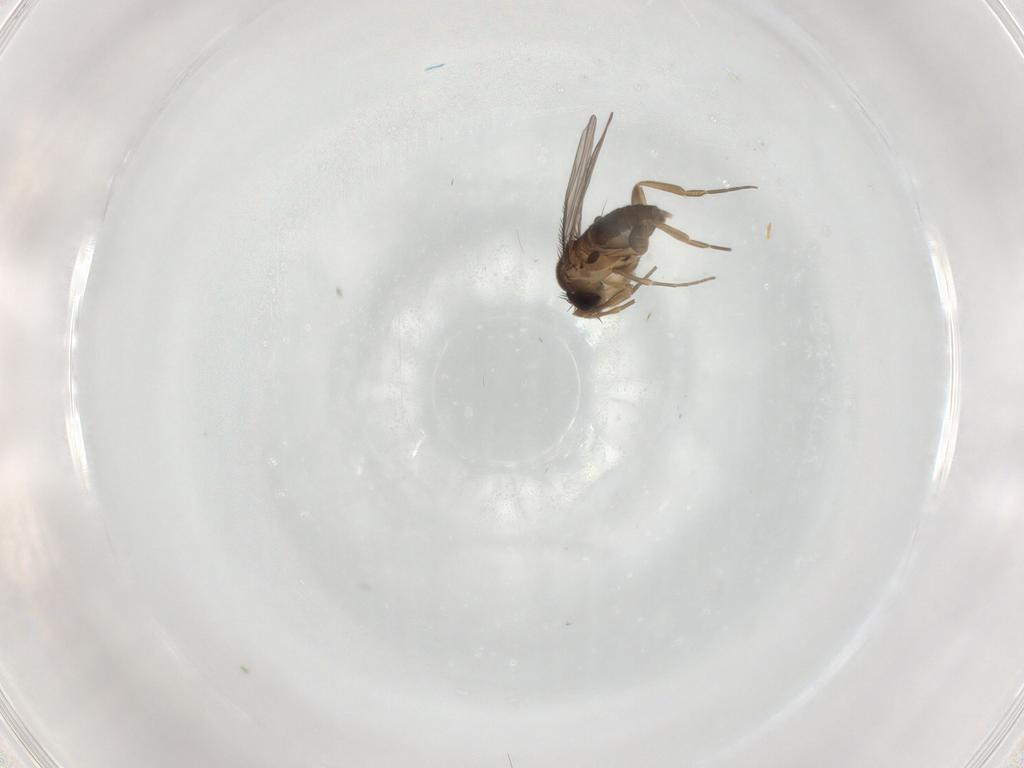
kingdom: Animalia
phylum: Arthropoda
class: Insecta
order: Diptera
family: Phoridae
